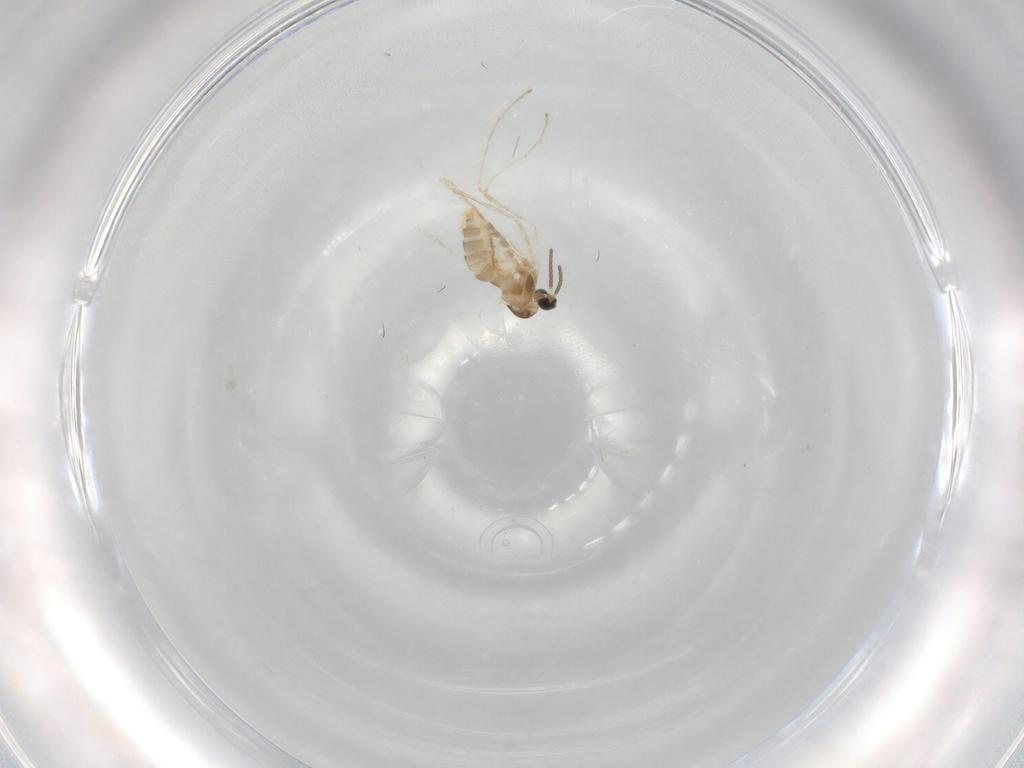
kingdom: Animalia
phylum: Arthropoda
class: Insecta
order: Diptera
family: Cecidomyiidae
